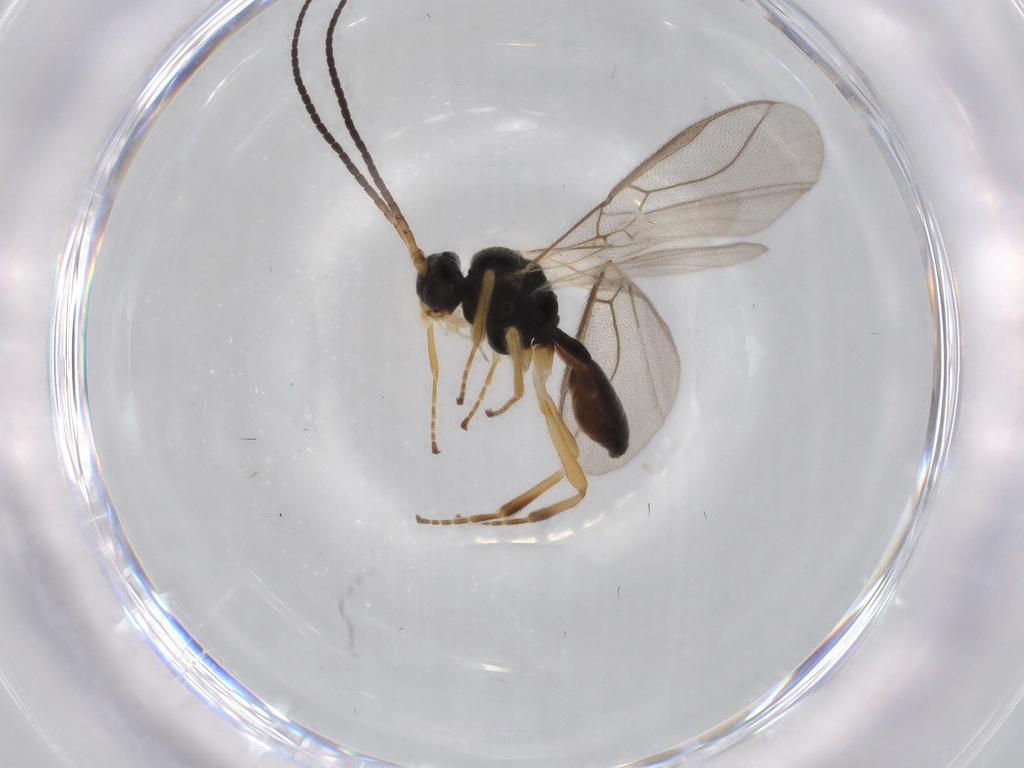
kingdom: Animalia
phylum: Arthropoda
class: Insecta
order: Hymenoptera
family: Braconidae
